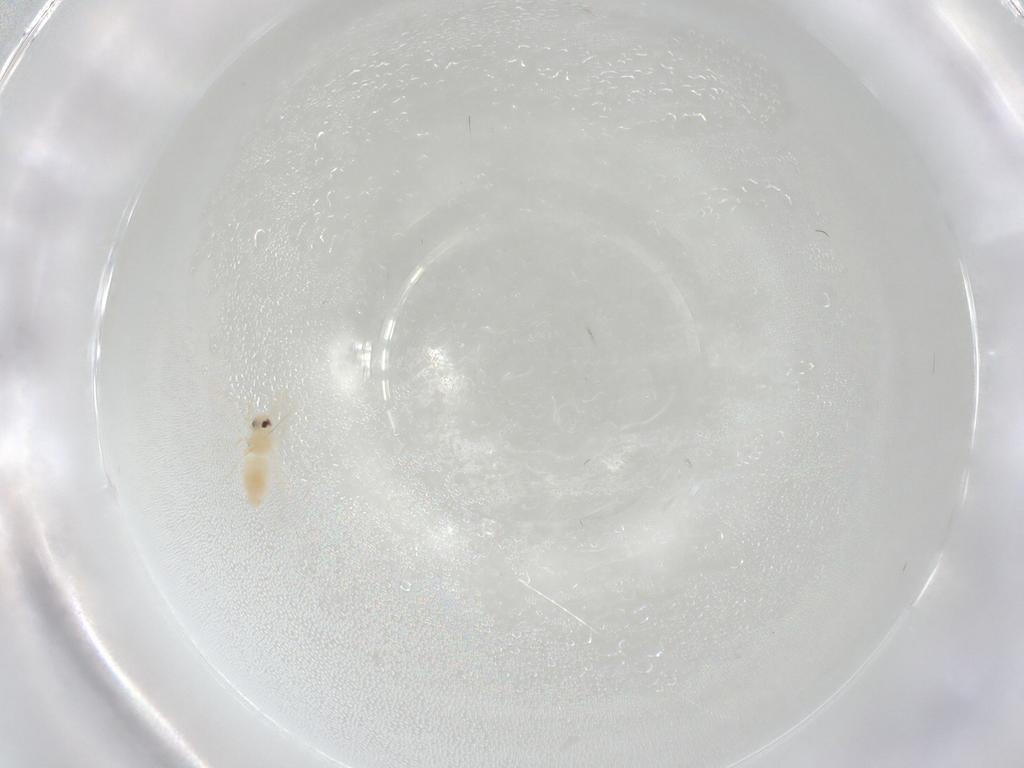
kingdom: Animalia
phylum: Arthropoda
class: Insecta
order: Hemiptera
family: Aleyrodidae
